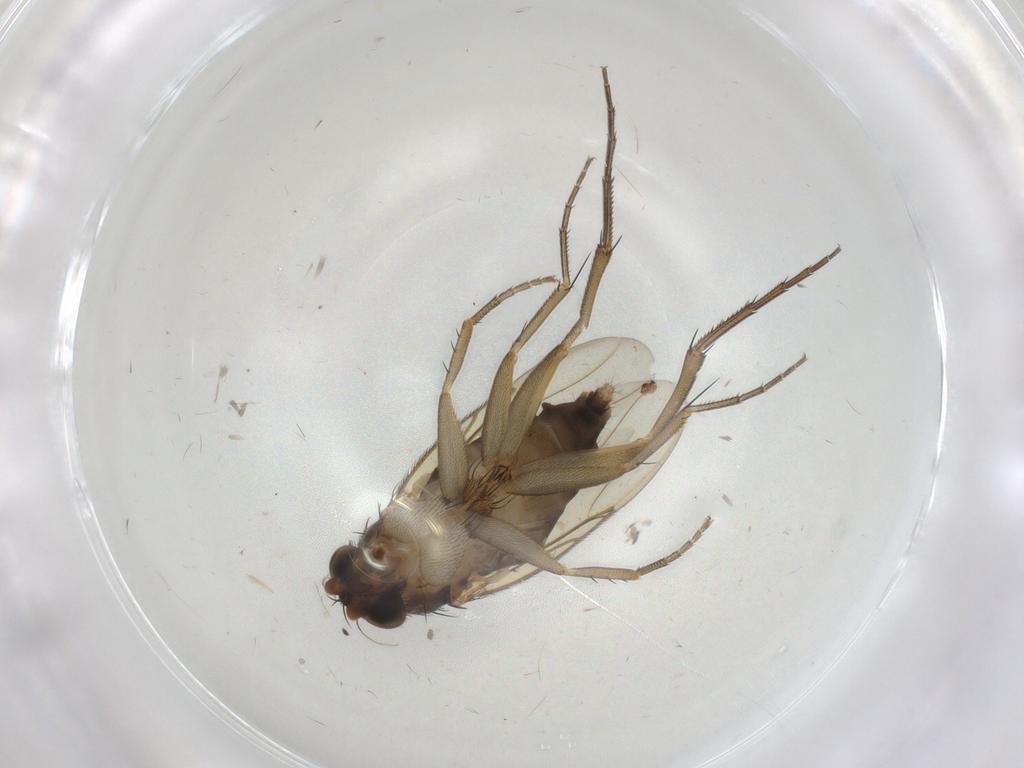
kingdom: Animalia
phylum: Arthropoda
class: Insecta
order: Diptera
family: Phoridae
